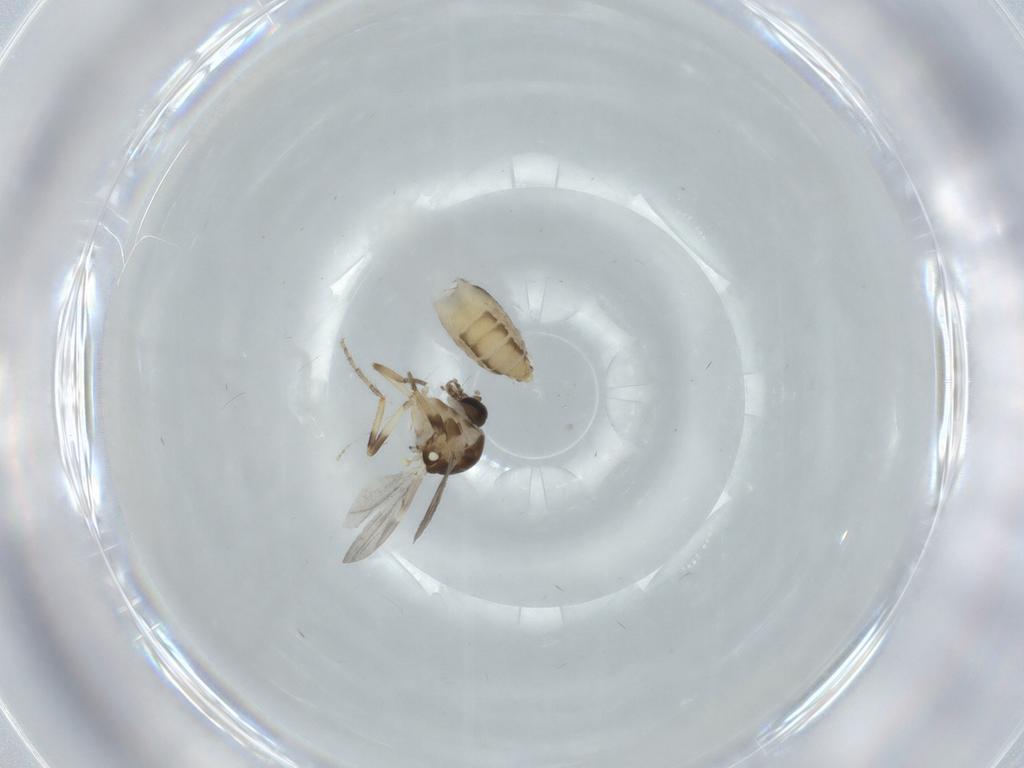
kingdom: Animalia
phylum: Arthropoda
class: Insecta
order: Diptera
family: Ceratopogonidae
